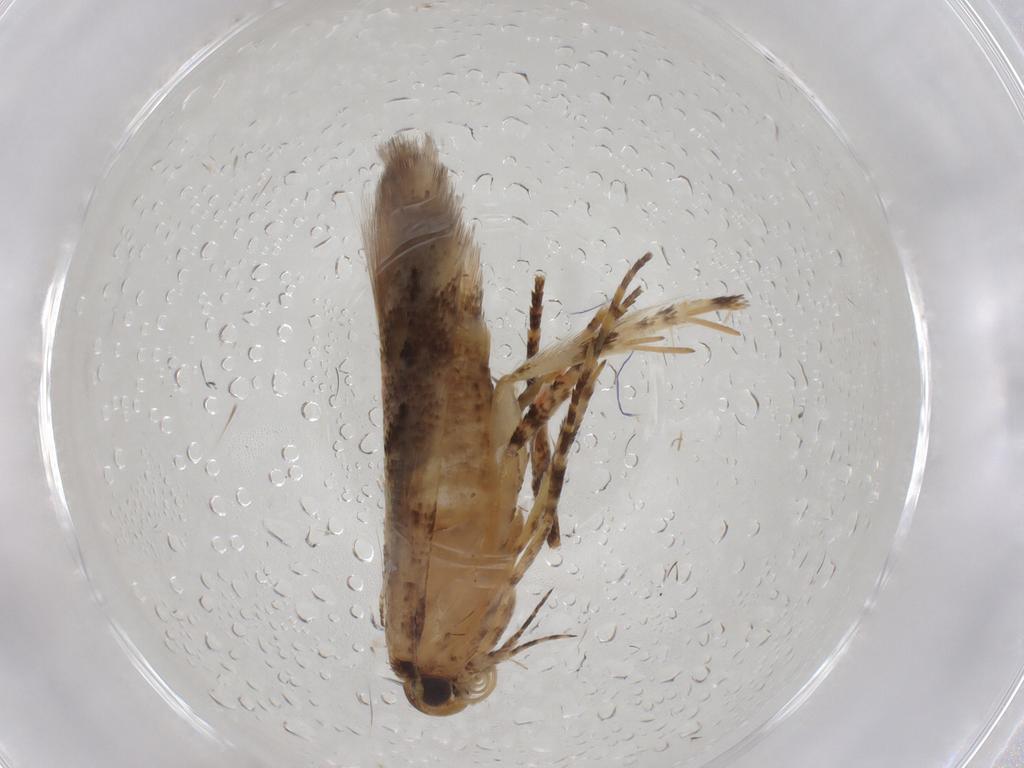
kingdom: Animalia
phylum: Arthropoda
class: Insecta
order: Lepidoptera
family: Gelechiidae
